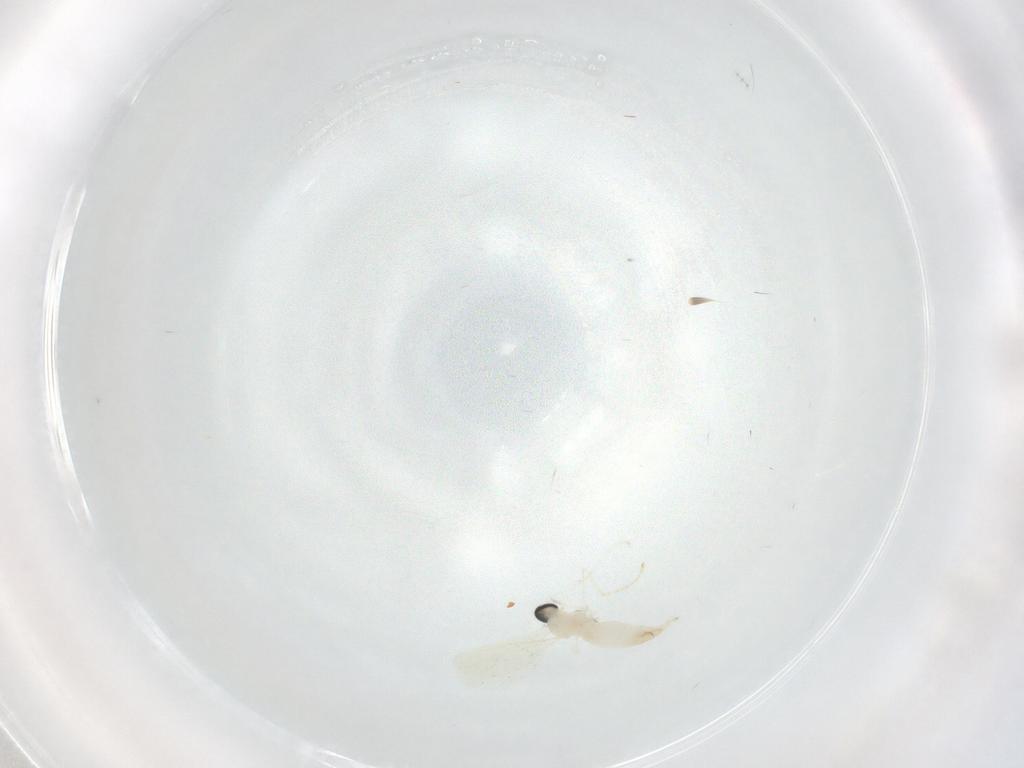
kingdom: Animalia
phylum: Arthropoda
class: Insecta
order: Diptera
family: Cecidomyiidae
